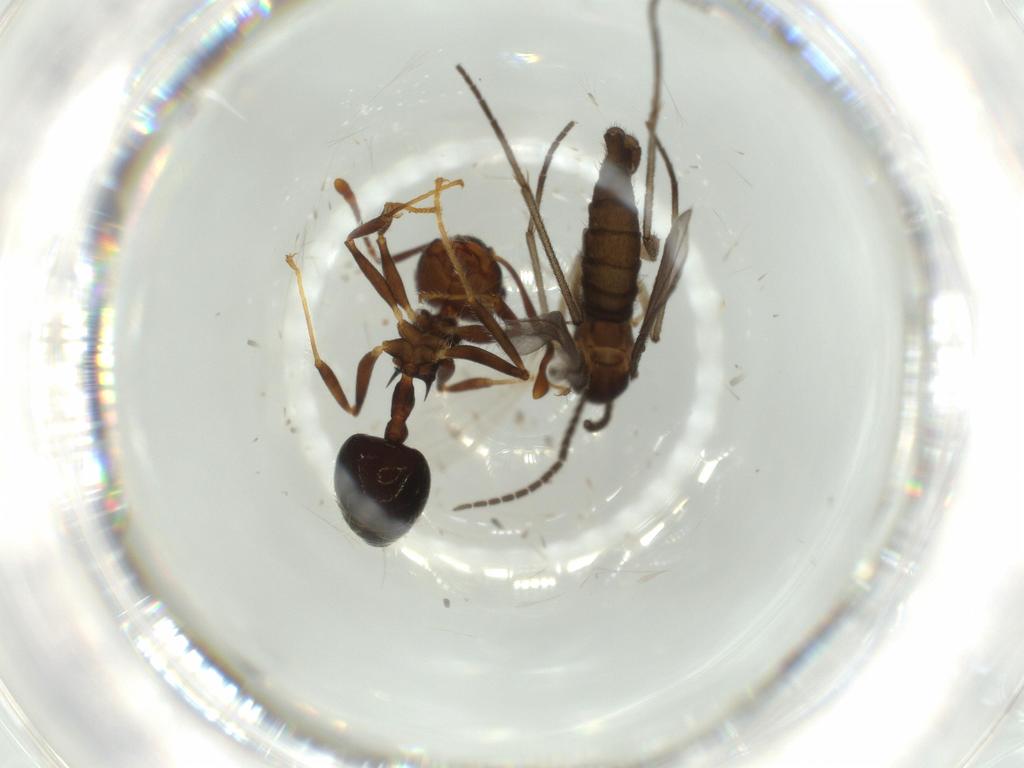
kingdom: Animalia
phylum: Arthropoda
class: Insecta
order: Diptera
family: Sciaridae
